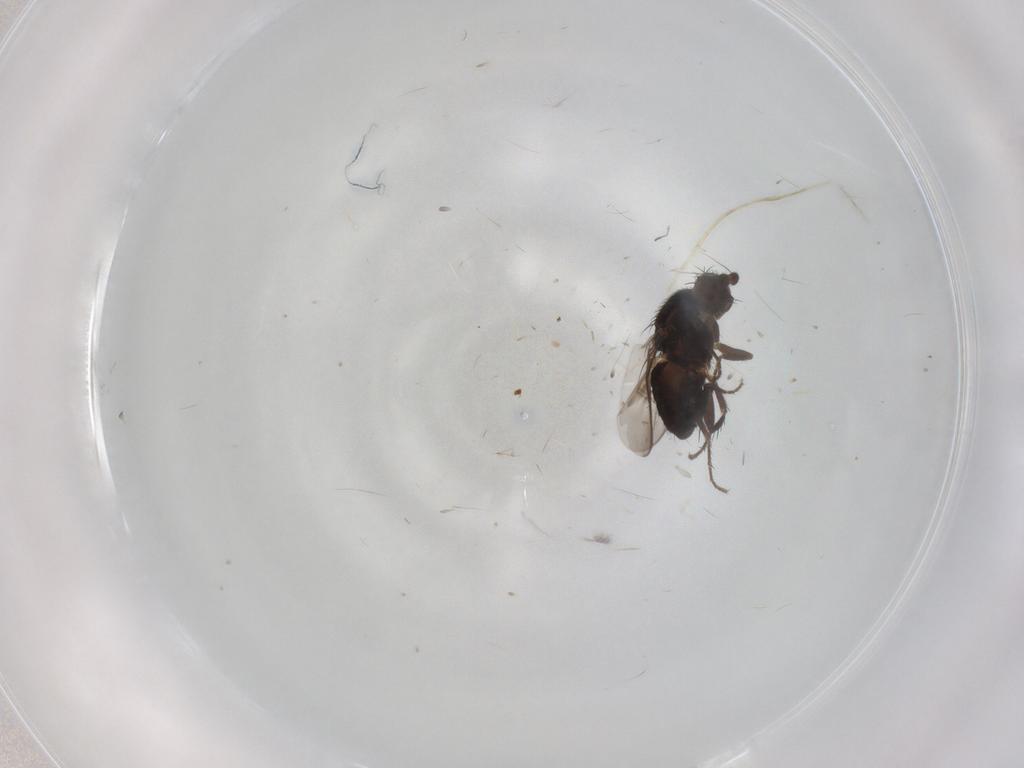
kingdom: Animalia
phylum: Arthropoda
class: Insecta
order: Diptera
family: Sphaeroceridae
